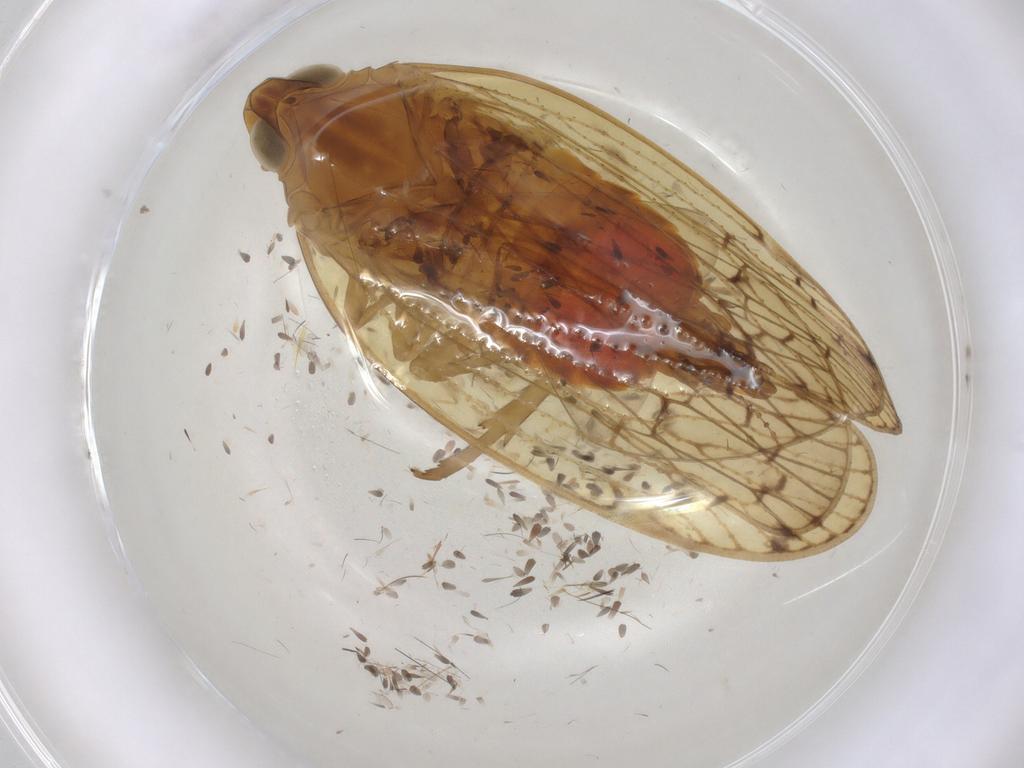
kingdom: Animalia
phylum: Arthropoda
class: Insecta
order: Hemiptera
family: Cixiidae
